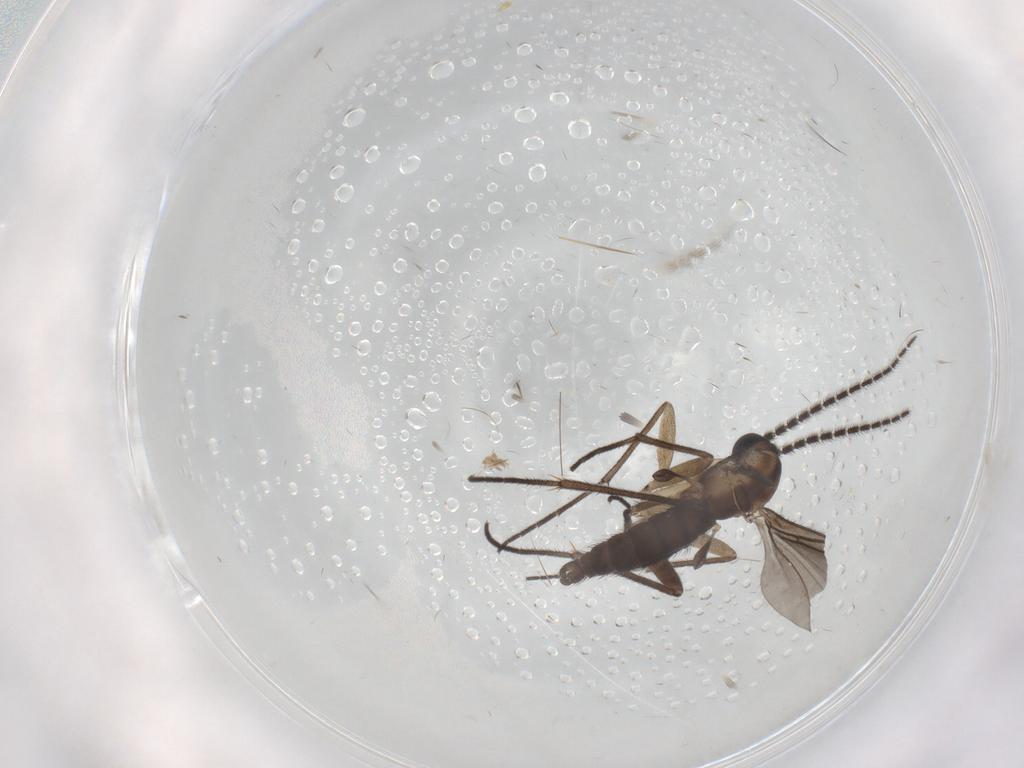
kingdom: Animalia
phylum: Arthropoda
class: Insecta
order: Diptera
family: Sciaridae
